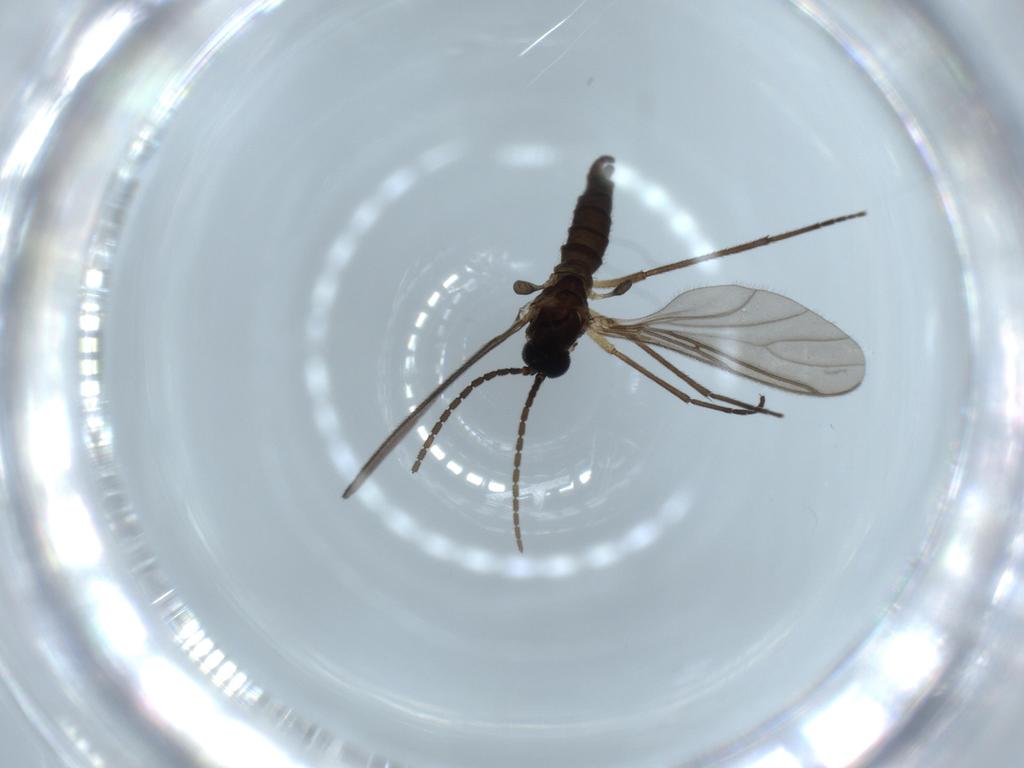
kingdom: Animalia
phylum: Arthropoda
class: Insecta
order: Diptera
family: Sciaridae
